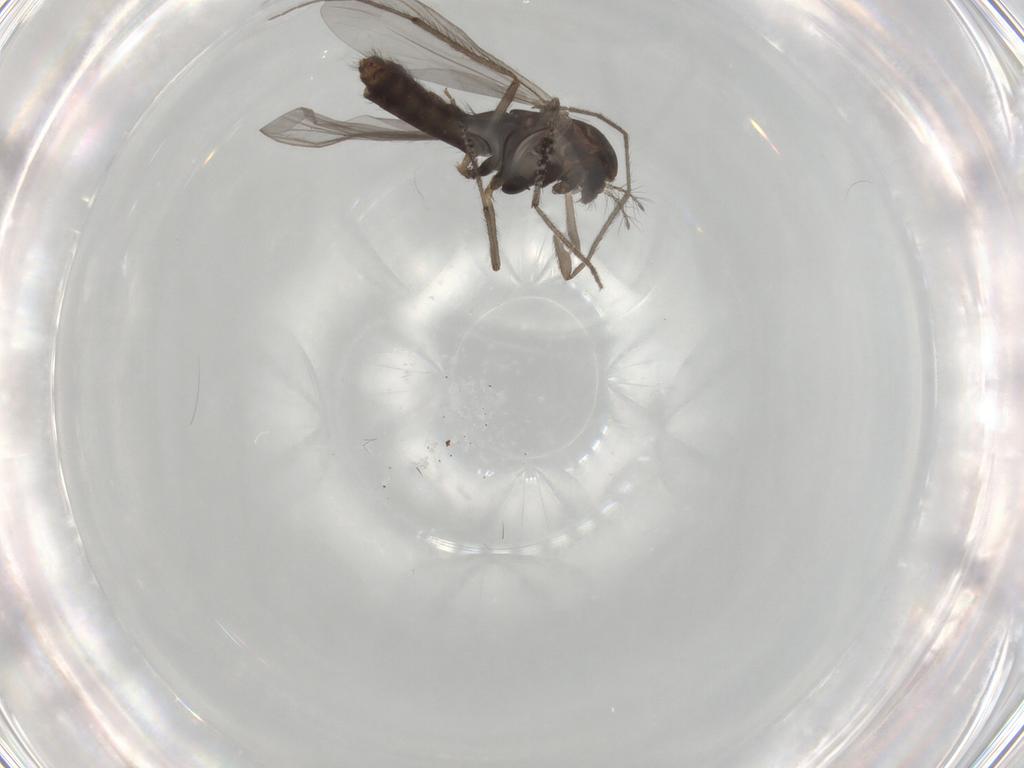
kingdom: Animalia
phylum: Arthropoda
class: Insecta
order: Diptera
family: Chironomidae
